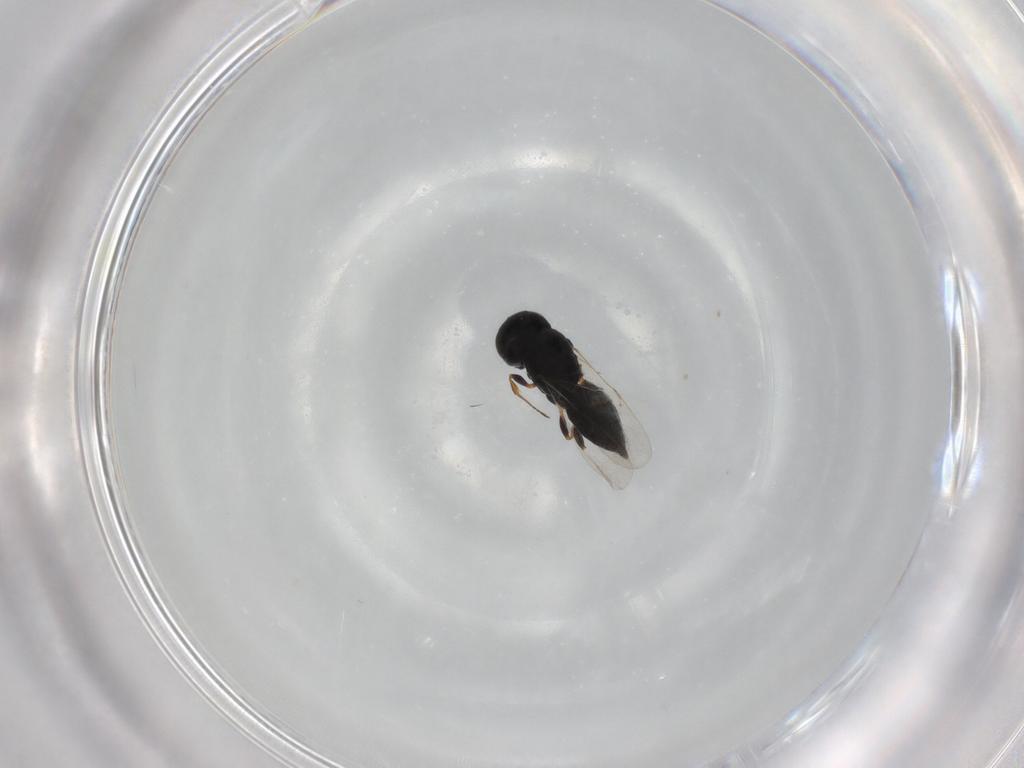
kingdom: Animalia
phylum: Arthropoda
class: Insecta
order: Hymenoptera
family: Scelionidae
